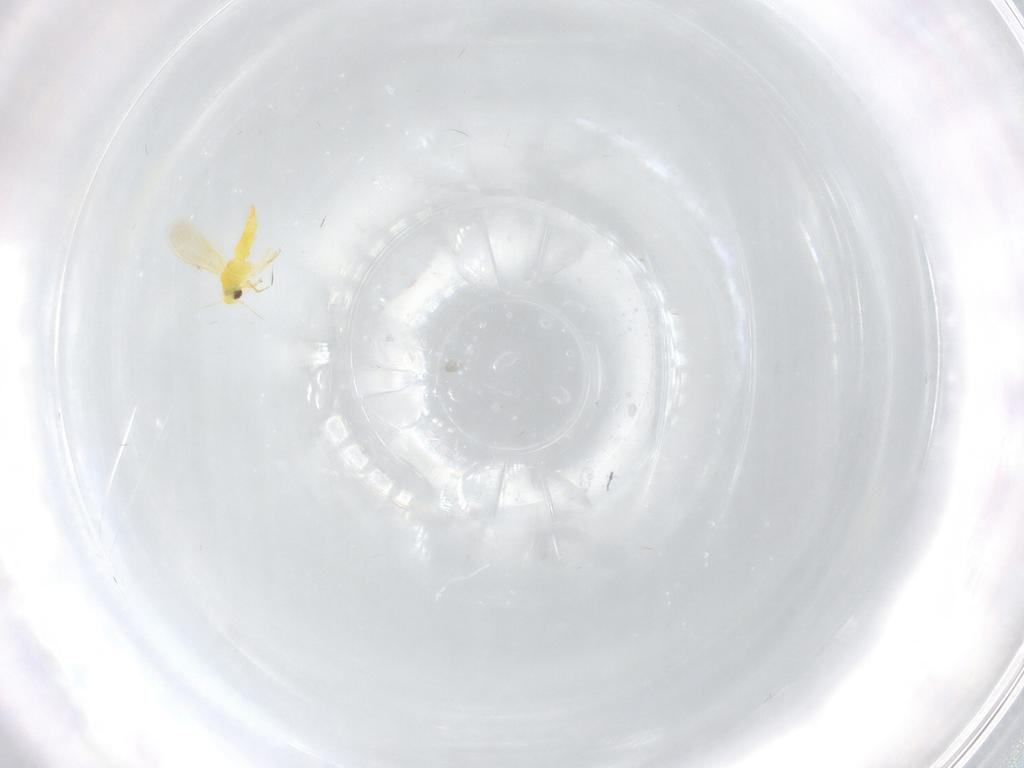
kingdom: Animalia
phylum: Arthropoda
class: Insecta
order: Hemiptera
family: Aleyrodidae
